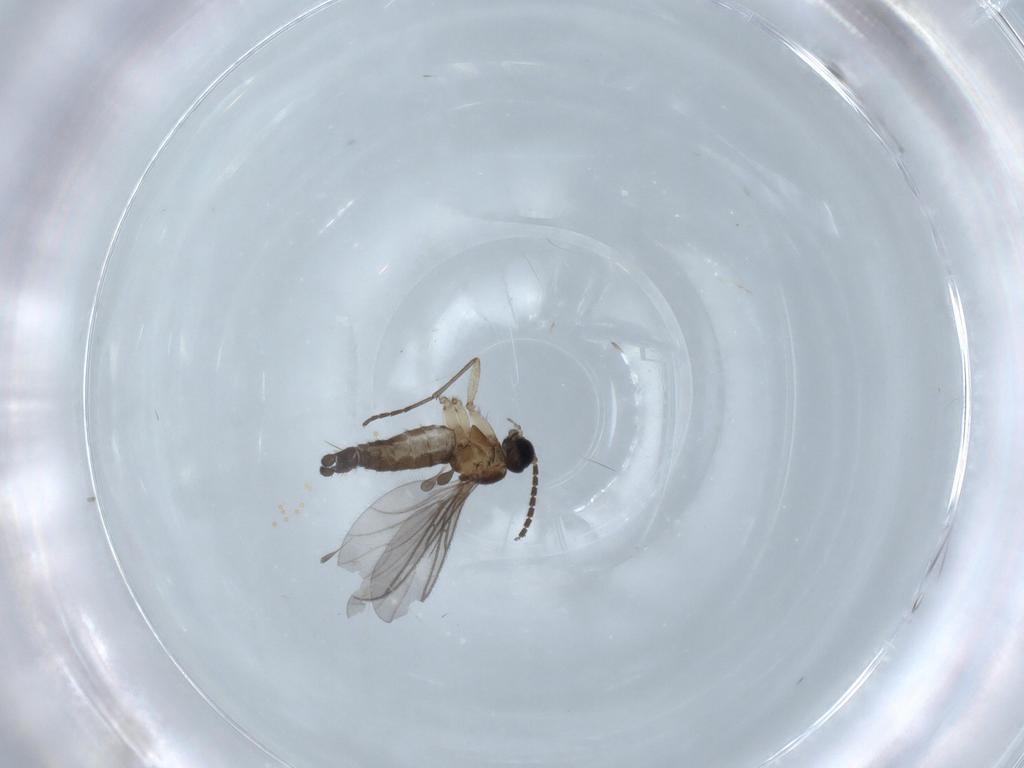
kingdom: Animalia
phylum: Arthropoda
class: Insecta
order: Diptera
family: Sciaridae
